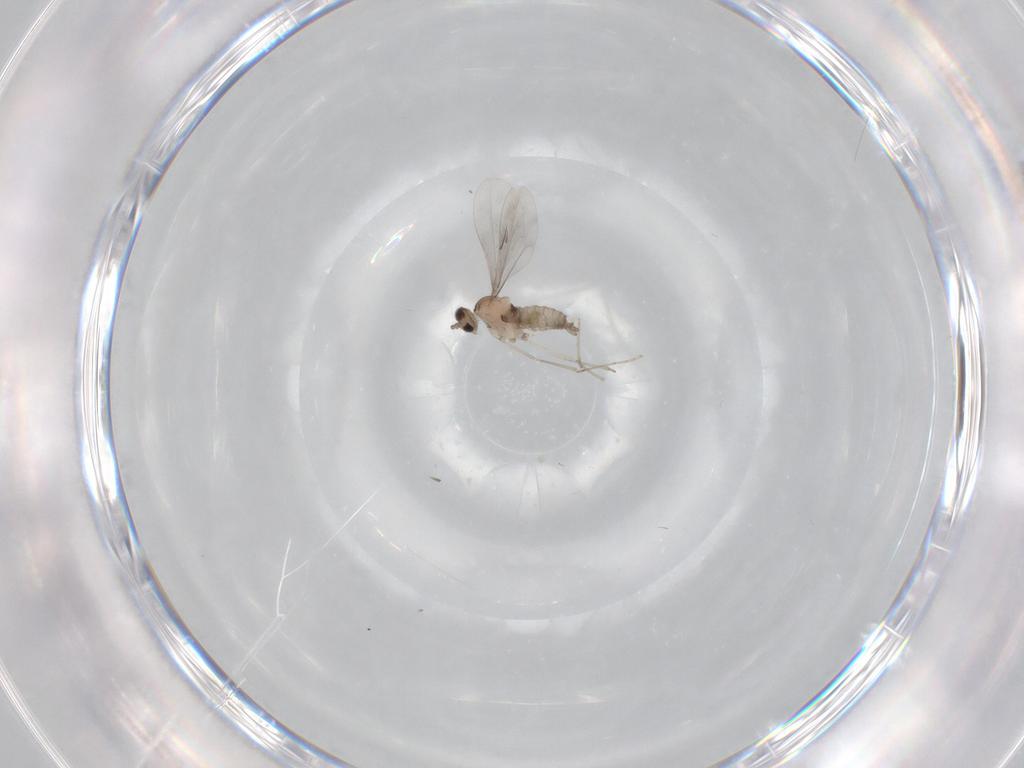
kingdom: Animalia
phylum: Arthropoda
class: Insecta
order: Diptera
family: Cecidomyiidae
